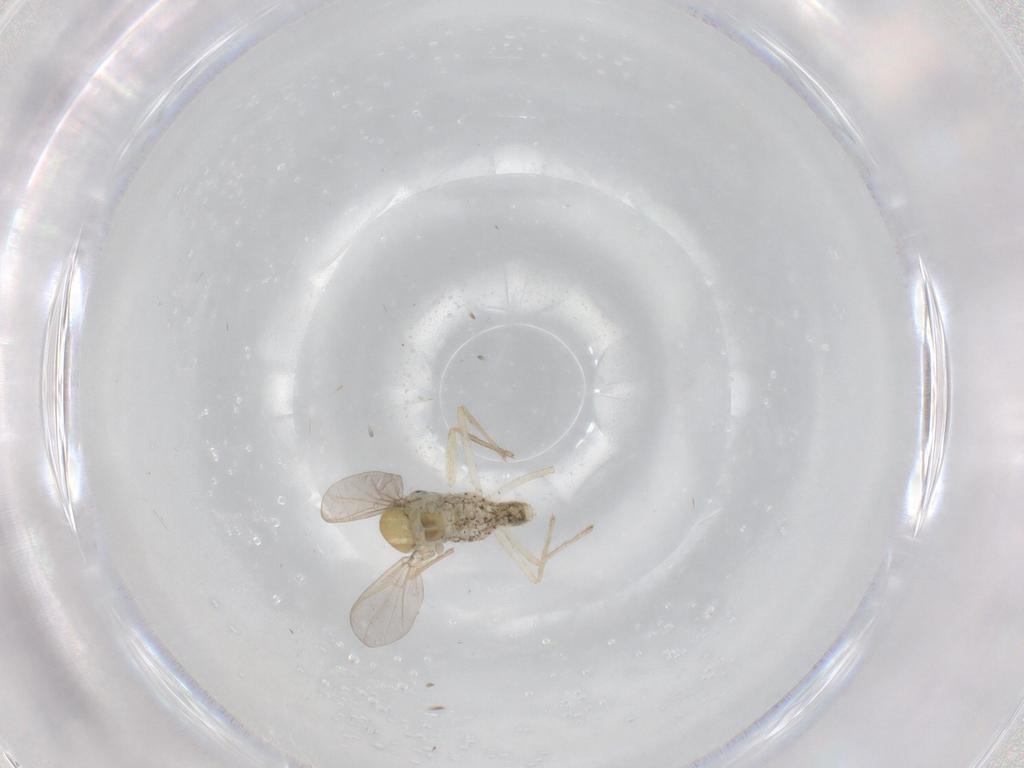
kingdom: Animalia
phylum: Arthropoda
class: Insecta
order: Diptera
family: Chironomidae
